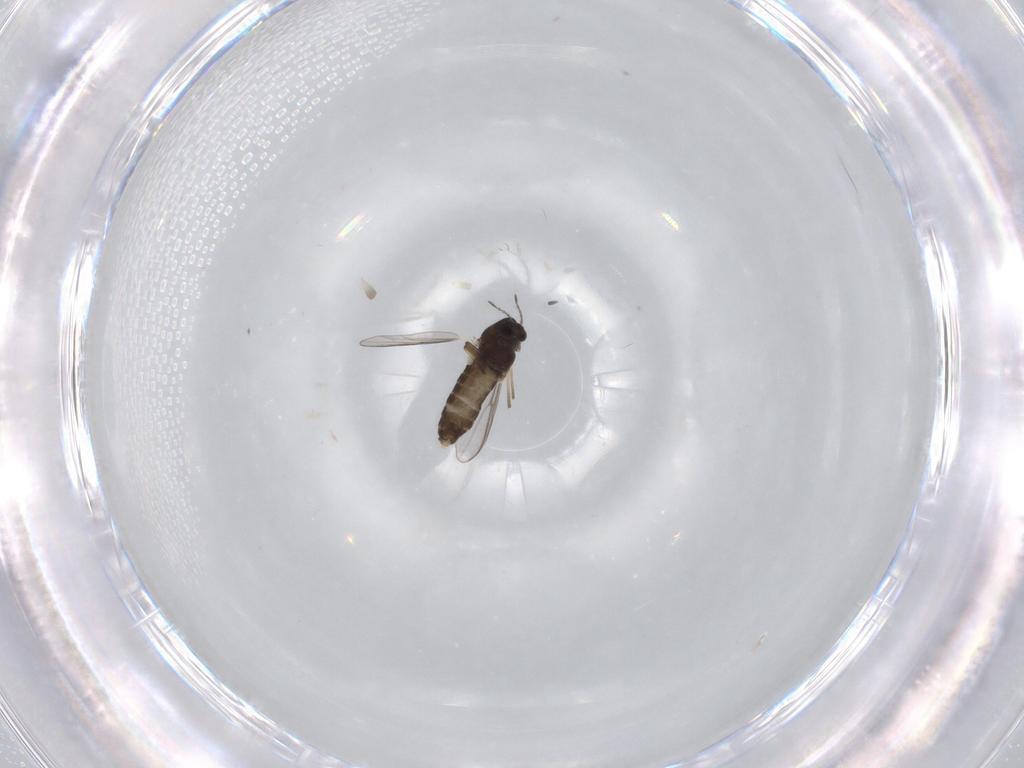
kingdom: Animalia
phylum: Arthropoda
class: Insecta
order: Diptera
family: Chironomidae
